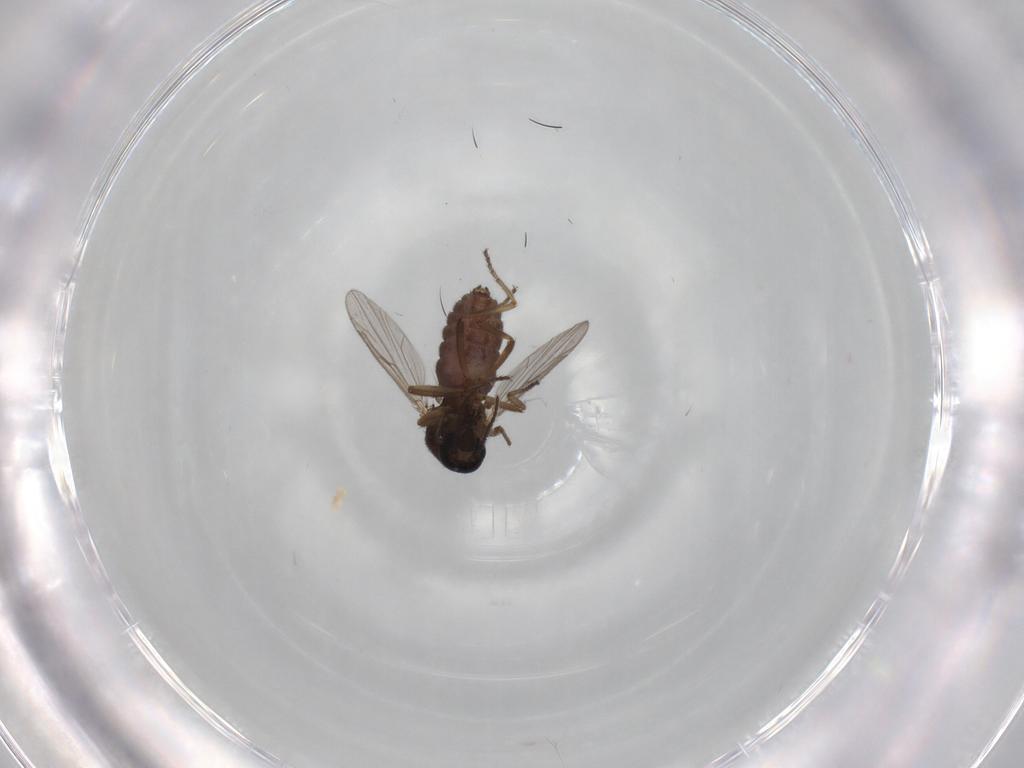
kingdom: Animalia
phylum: Arthropoda
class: Insecta
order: Diptera
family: Ceratopogonidae
